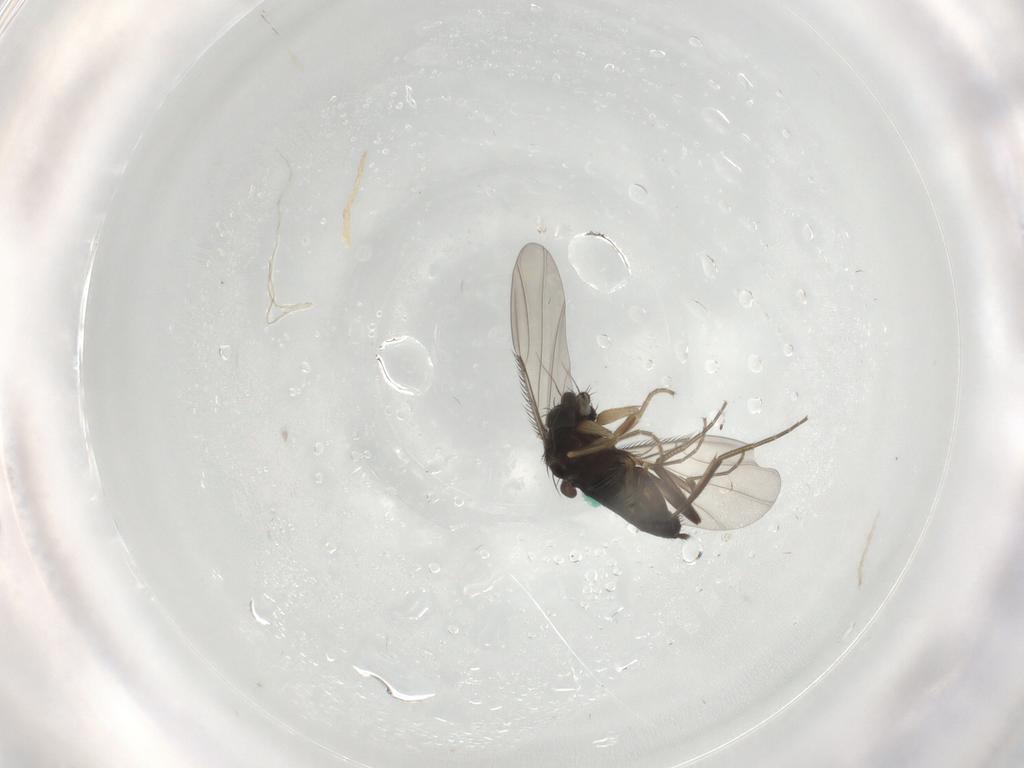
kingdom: Animalia
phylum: Arthropoda
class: Insecta
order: Diptera
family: Phoridae
